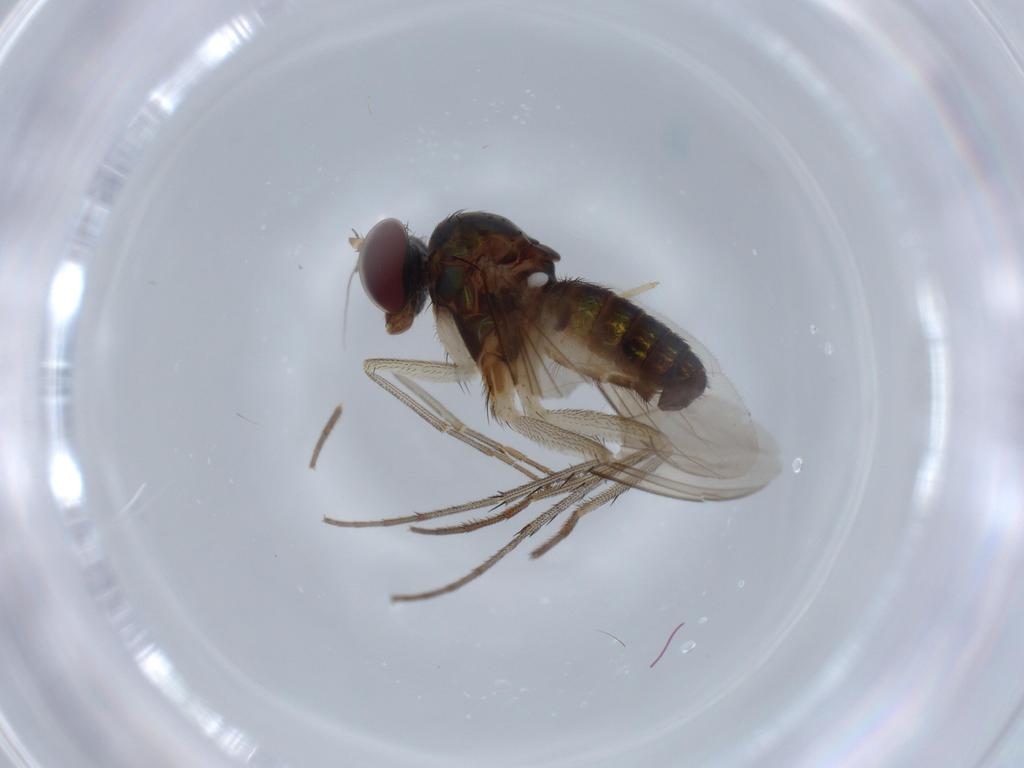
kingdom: Animalia
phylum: Arthropoda
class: Insecta
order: Diptera
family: Dolichopodidae
